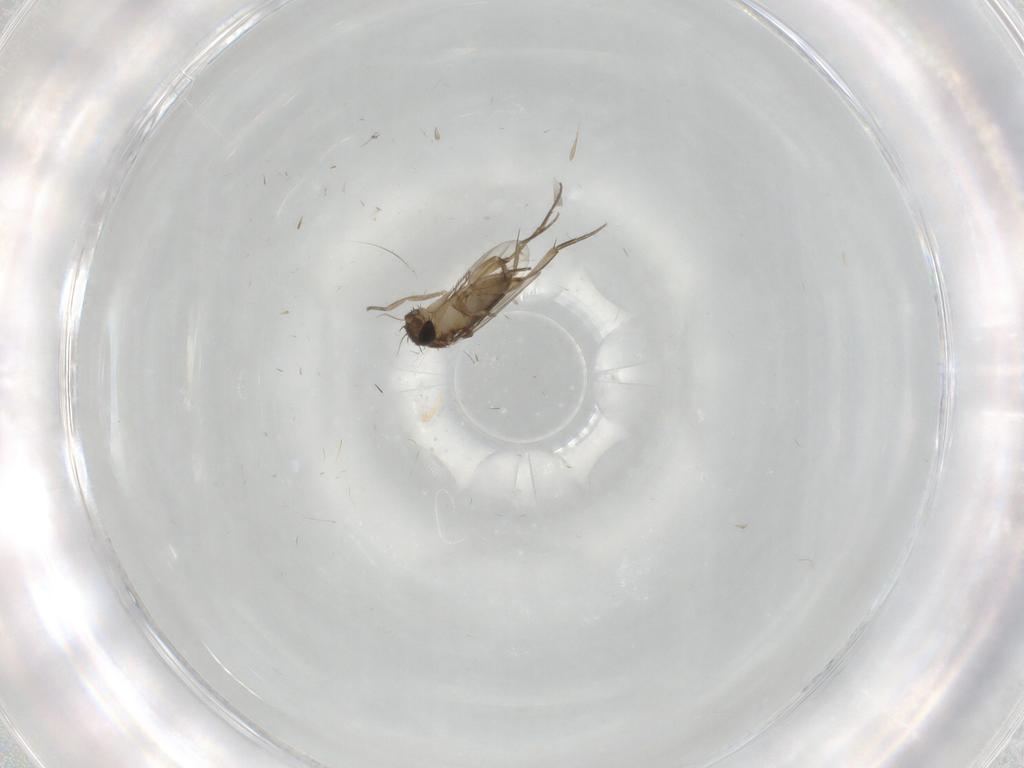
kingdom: Animalia
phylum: Arthropoda
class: Insecta
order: Diptera
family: Phoridae
